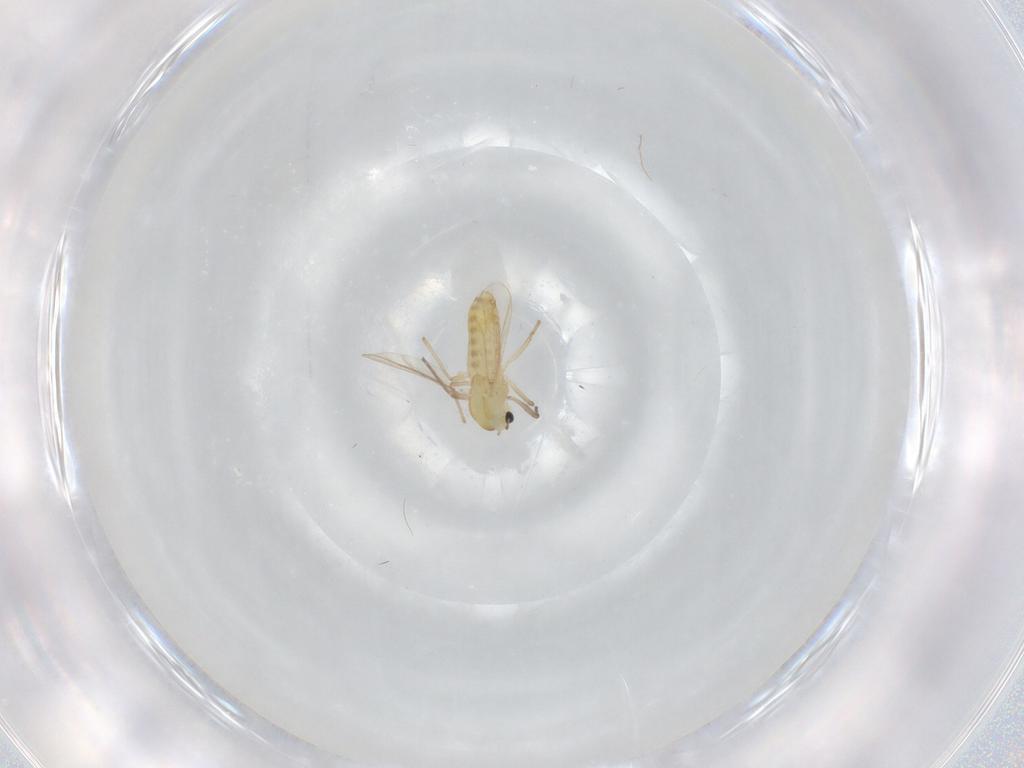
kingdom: Animalia
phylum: Arthropoda
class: Insecta
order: Diptera
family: Chironomidae
